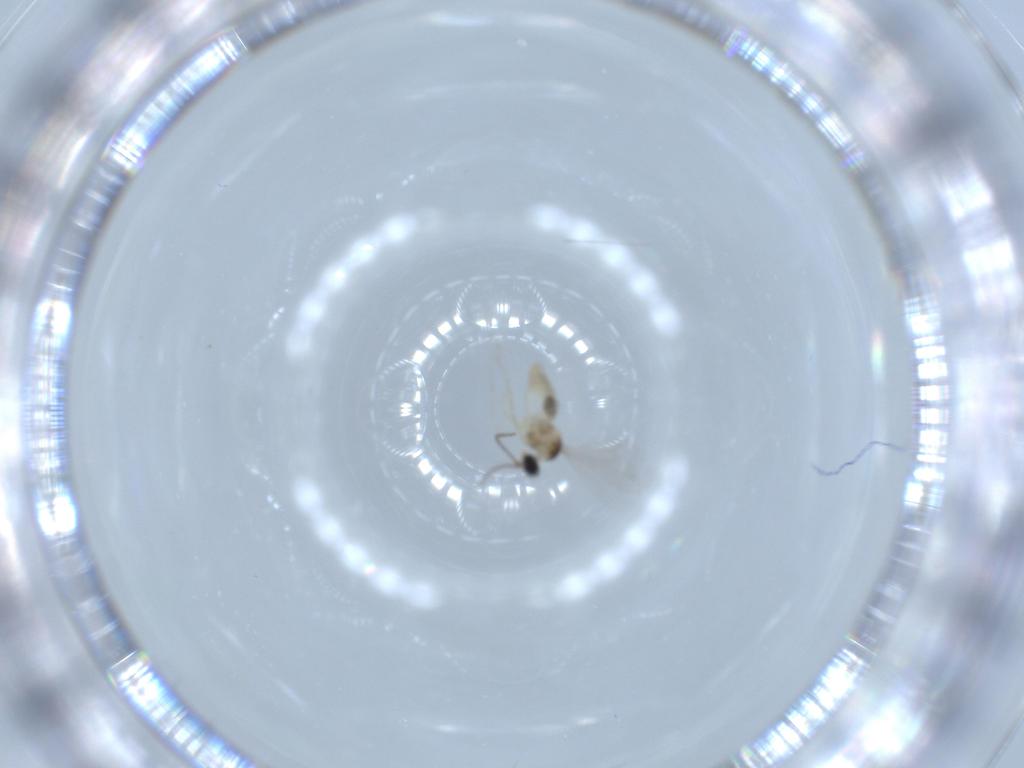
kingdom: Animalia
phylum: Arthropoda
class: Insecta
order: Diptera
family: Cecidomyiidae
